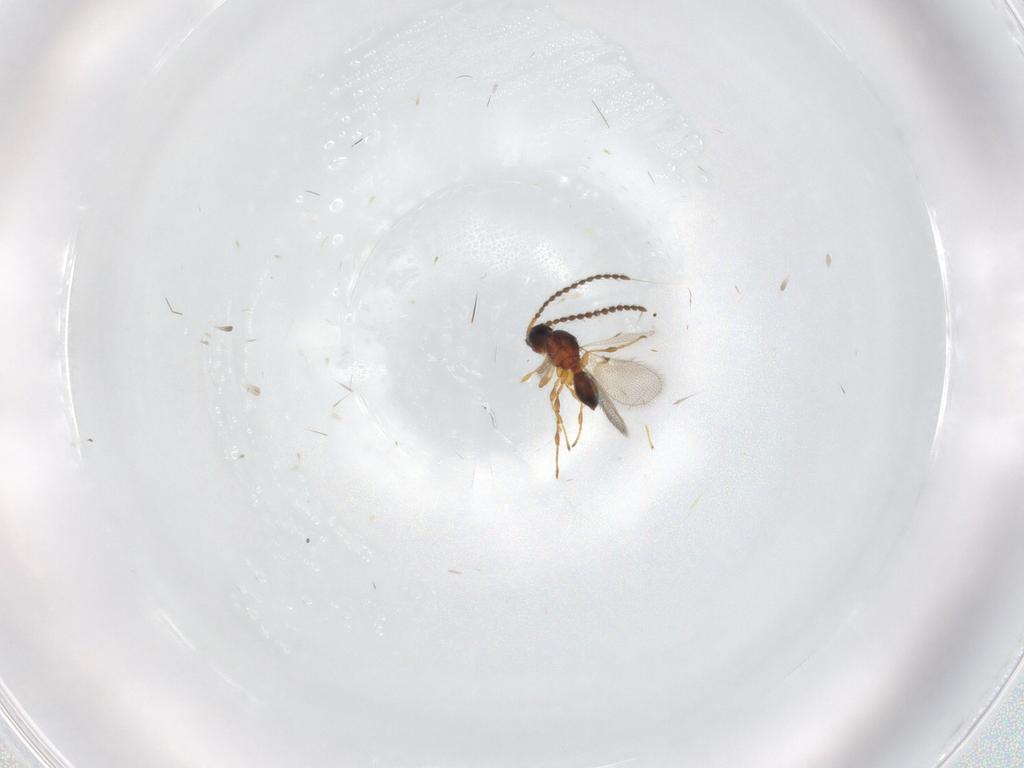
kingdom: Animalia
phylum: Arthropoda
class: Insecta
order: Hymenoptera
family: Diapriidae
